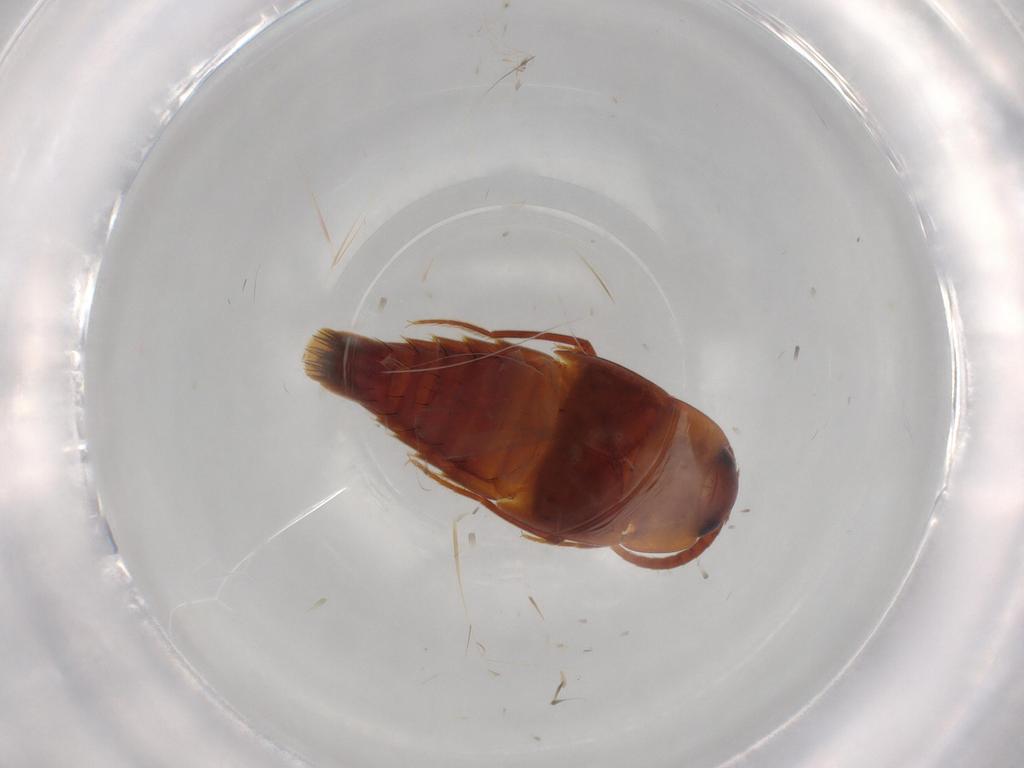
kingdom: Animalia
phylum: Arthropoda
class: Insecta
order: Coleoptera
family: Staphylinidae
